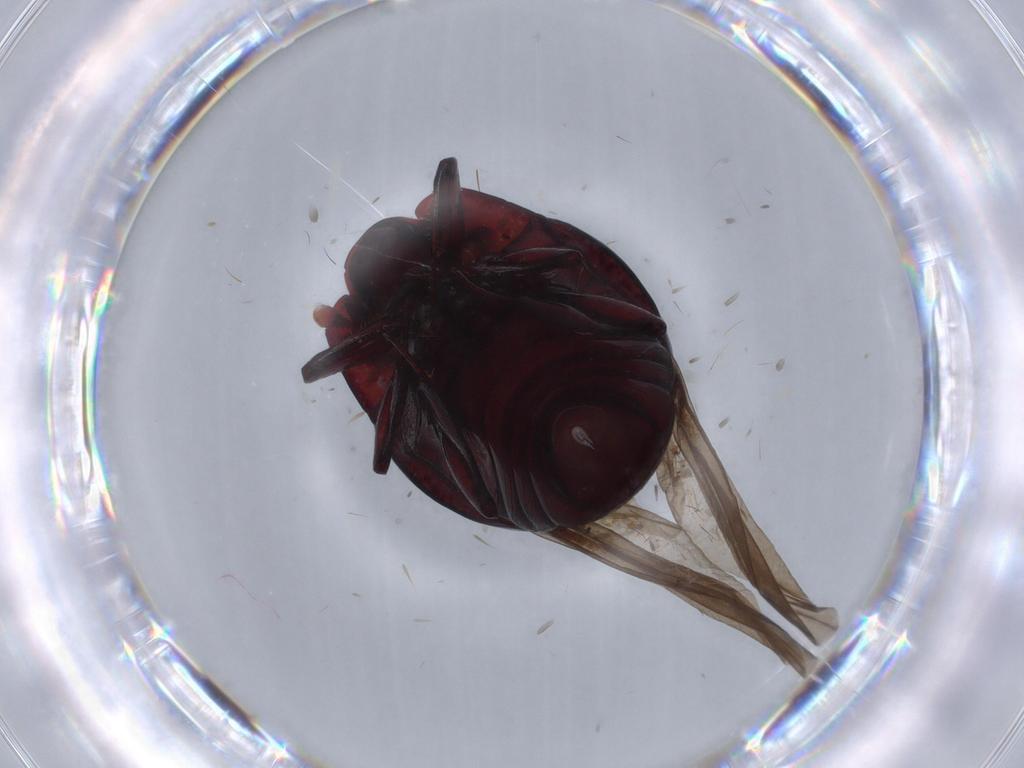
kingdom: Animalia
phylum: Arthropoda
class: Insecta
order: Coleoptera
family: Histeridae
